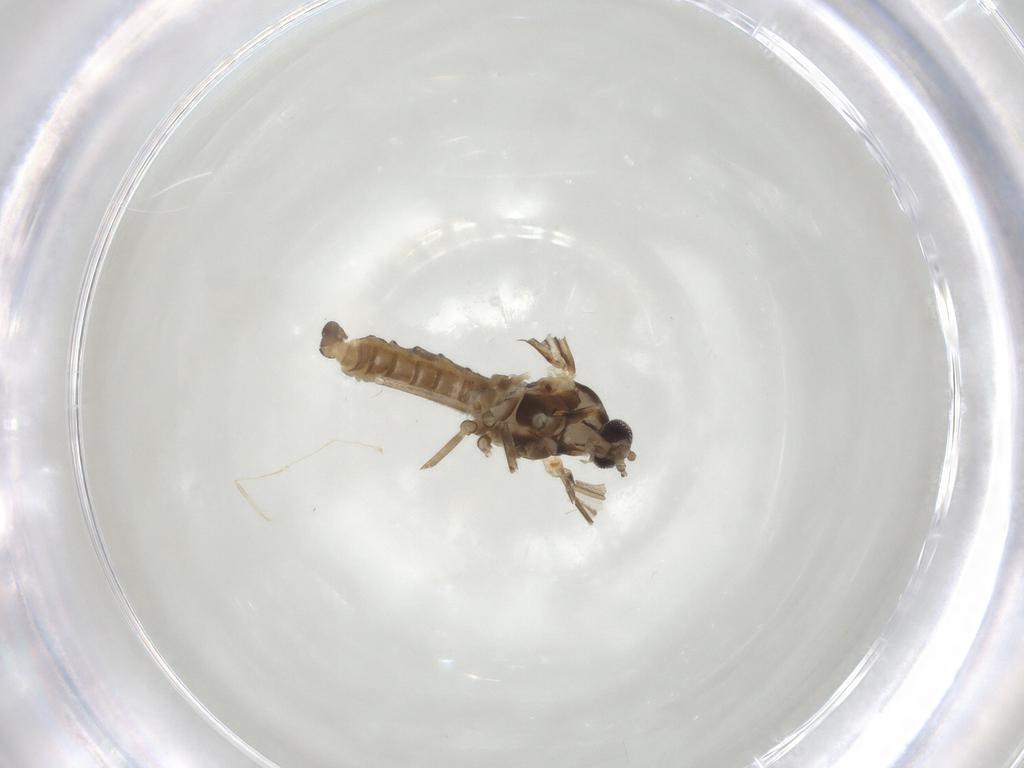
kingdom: Animalia
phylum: Arthropoda
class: Insecta
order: Diptera
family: Cecidomyiidae
